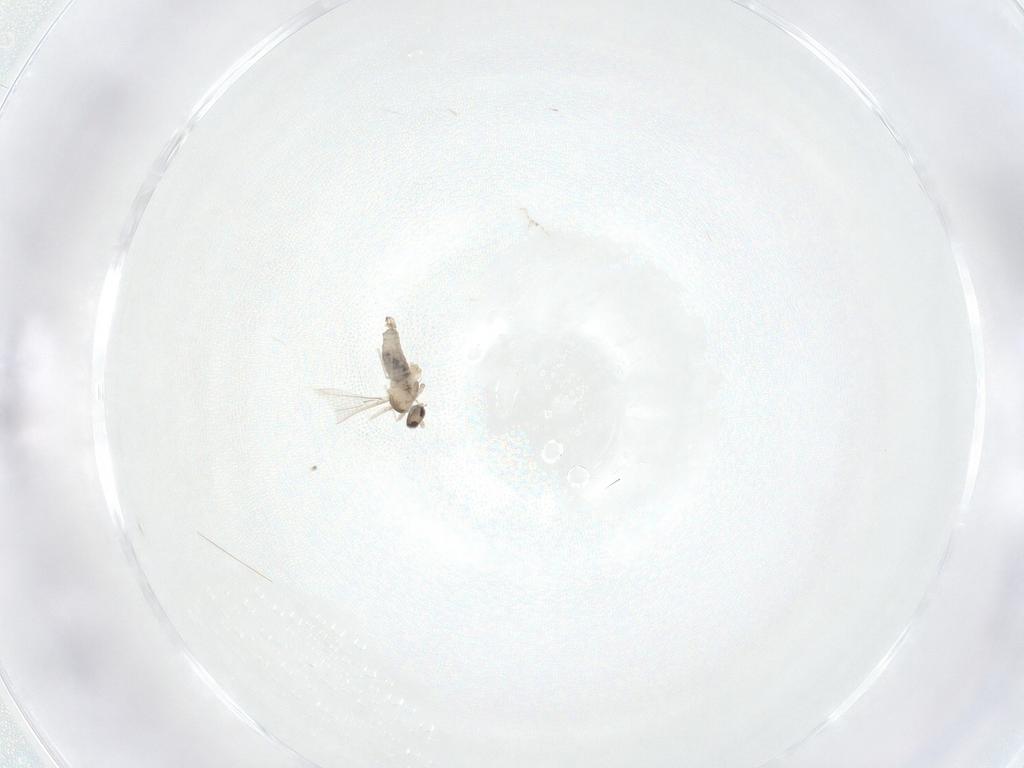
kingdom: Animalia
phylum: Arthropoda
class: Insecta
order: Diptera
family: Cecidomyiidae
